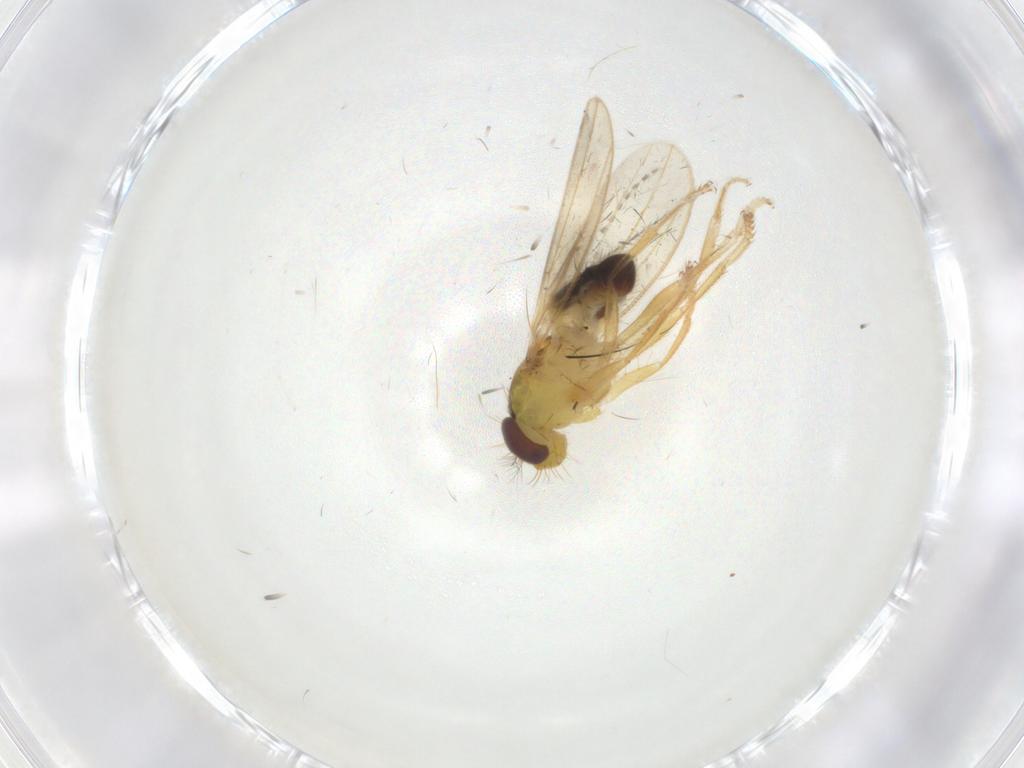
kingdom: Animalia
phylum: Arthropoda
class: Insecta
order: Diptera
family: Periscelididae
